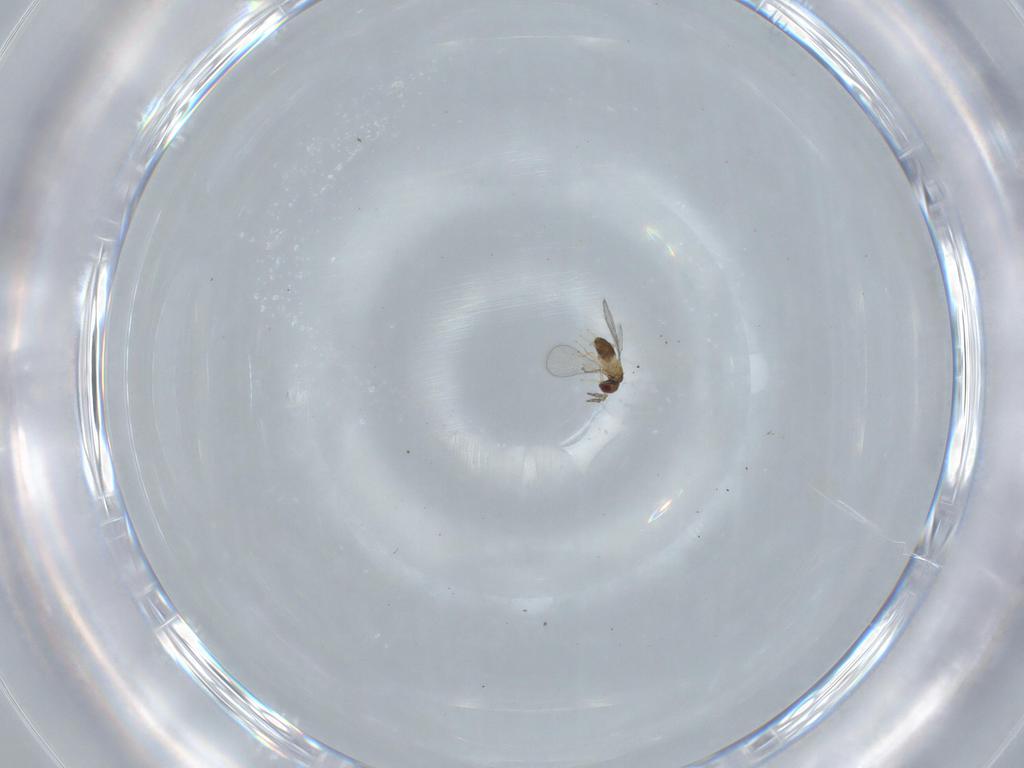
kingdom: Animalia
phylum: Arthropoda
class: Insecta
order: Hymenoptera
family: Trichogrammatidae
